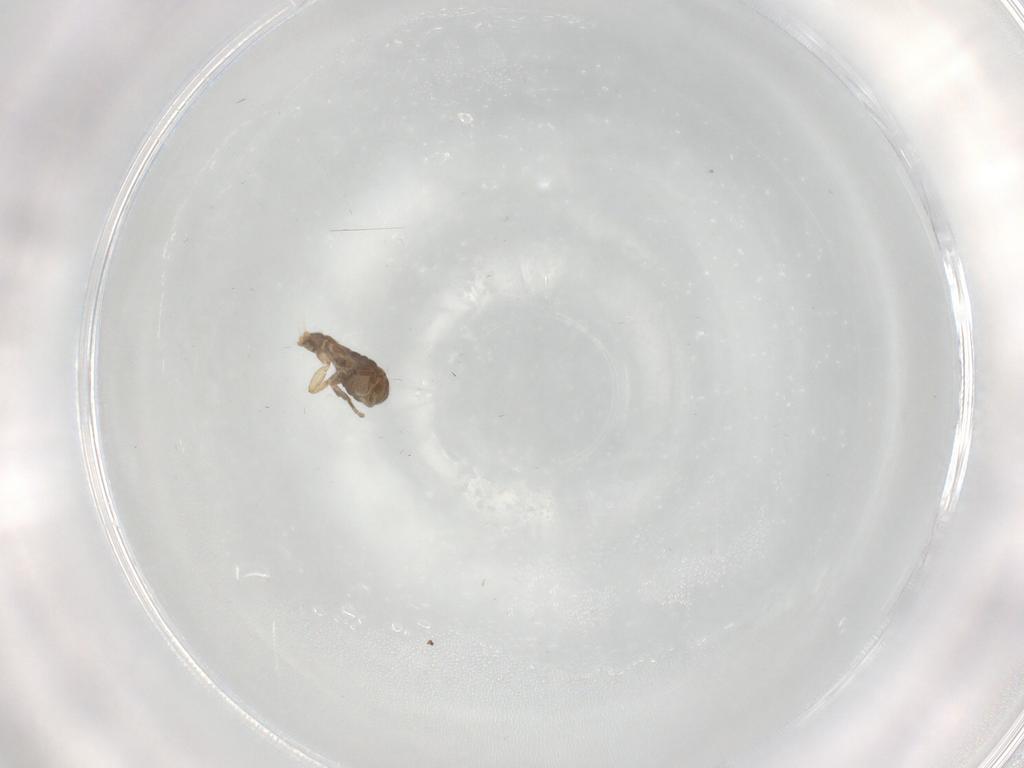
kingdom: Animalia
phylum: Arthropoda
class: Insecta
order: Diptera
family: Chironomidae
